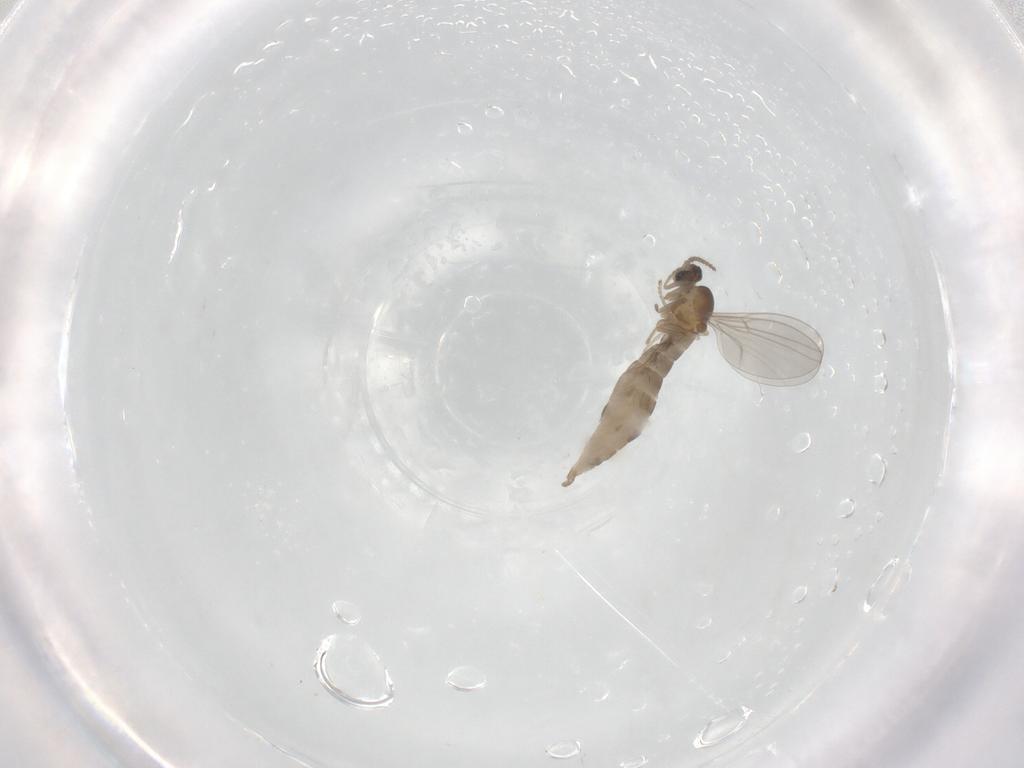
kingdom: Animalia
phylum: Arthropoda
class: Insecta
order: Diptera
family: Cecidomyiidae
